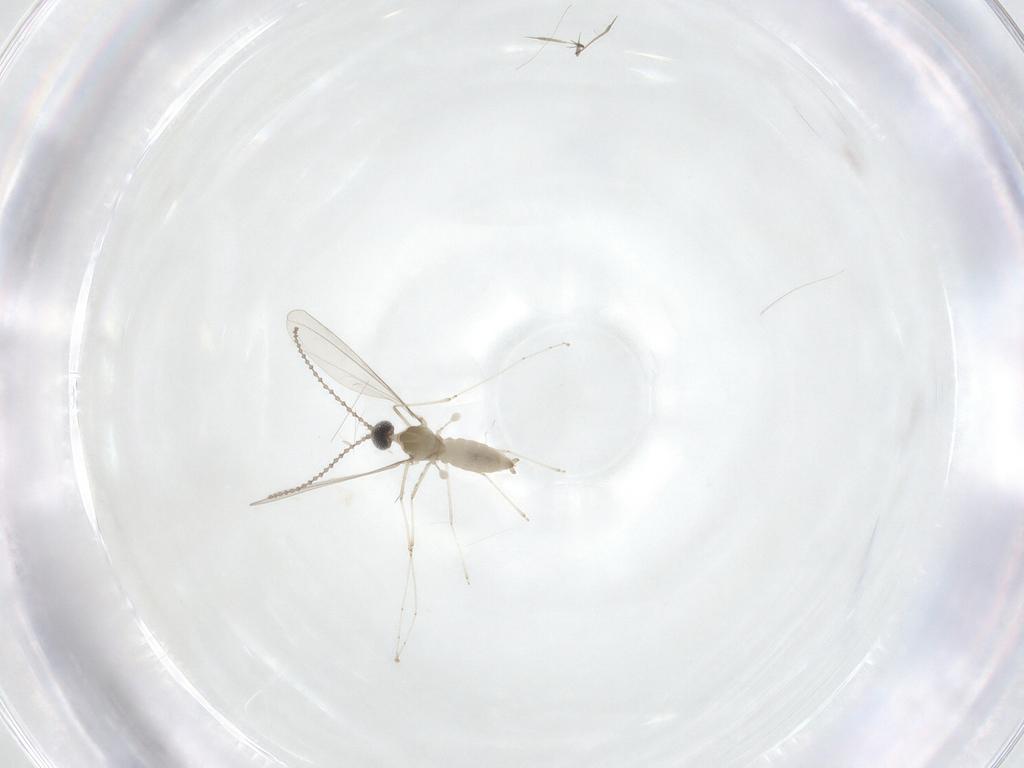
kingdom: Animalia
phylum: Arthropoda
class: Insecta
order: Diptera
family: Cecidomyiidae
